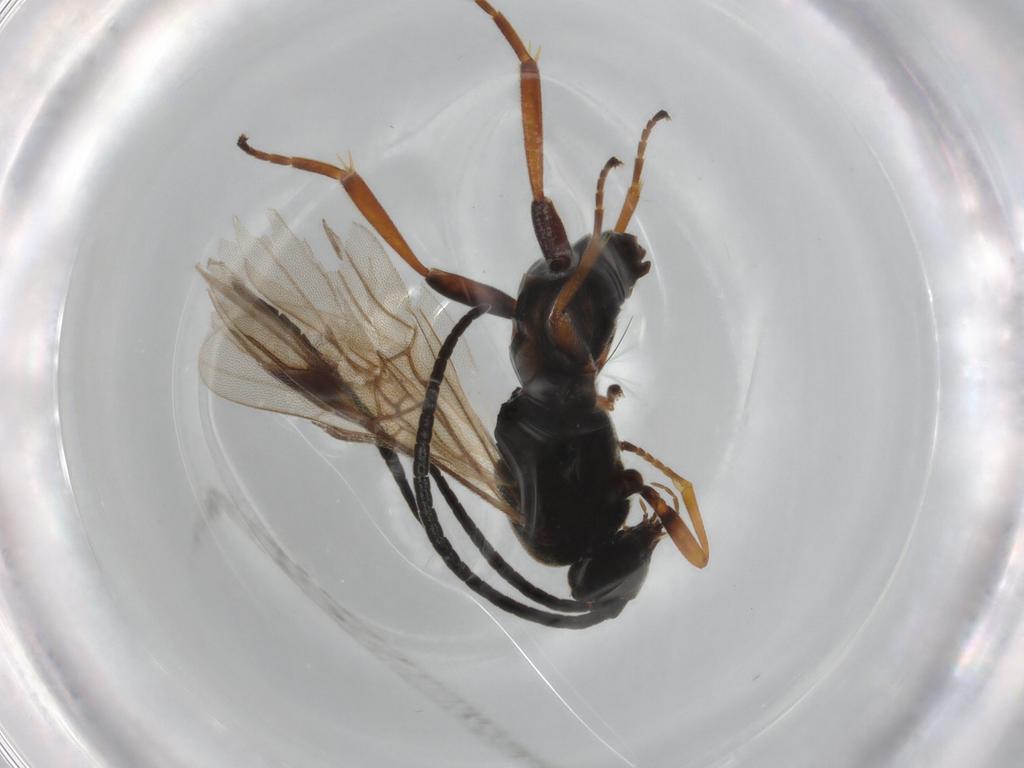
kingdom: Animalia
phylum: Arthropoda
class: Insecta
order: Hymenoptera
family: Braconidae
